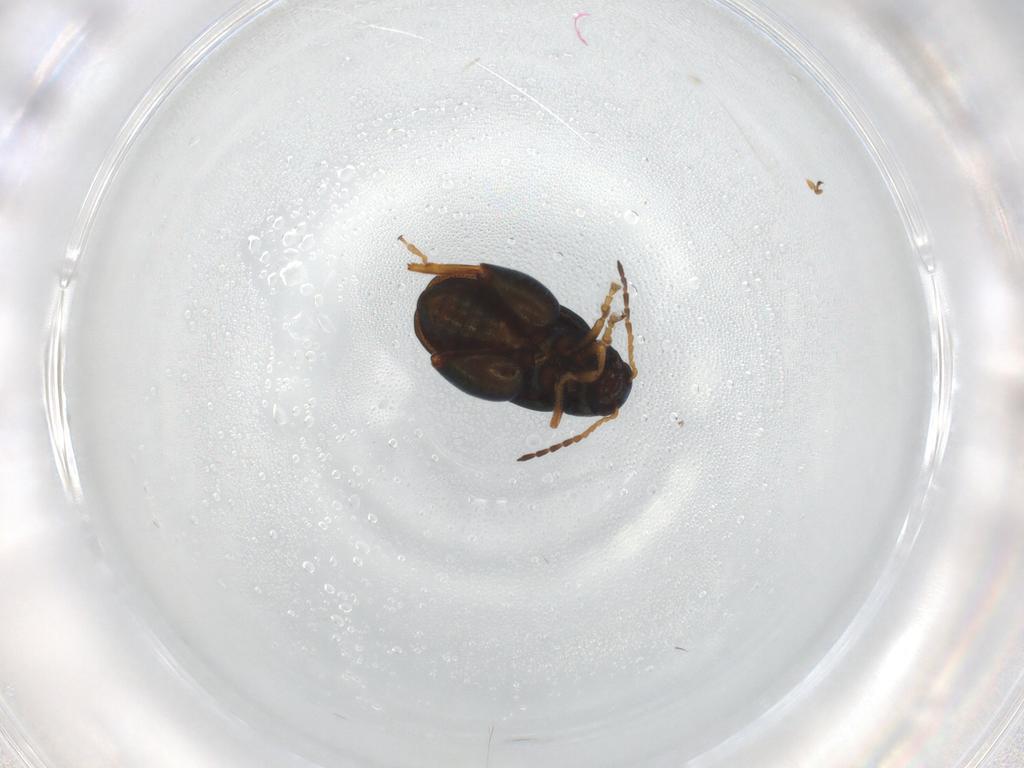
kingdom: Animalia
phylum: Arthropoda
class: Insecta
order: Coleoptera
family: Chrysomelidae
